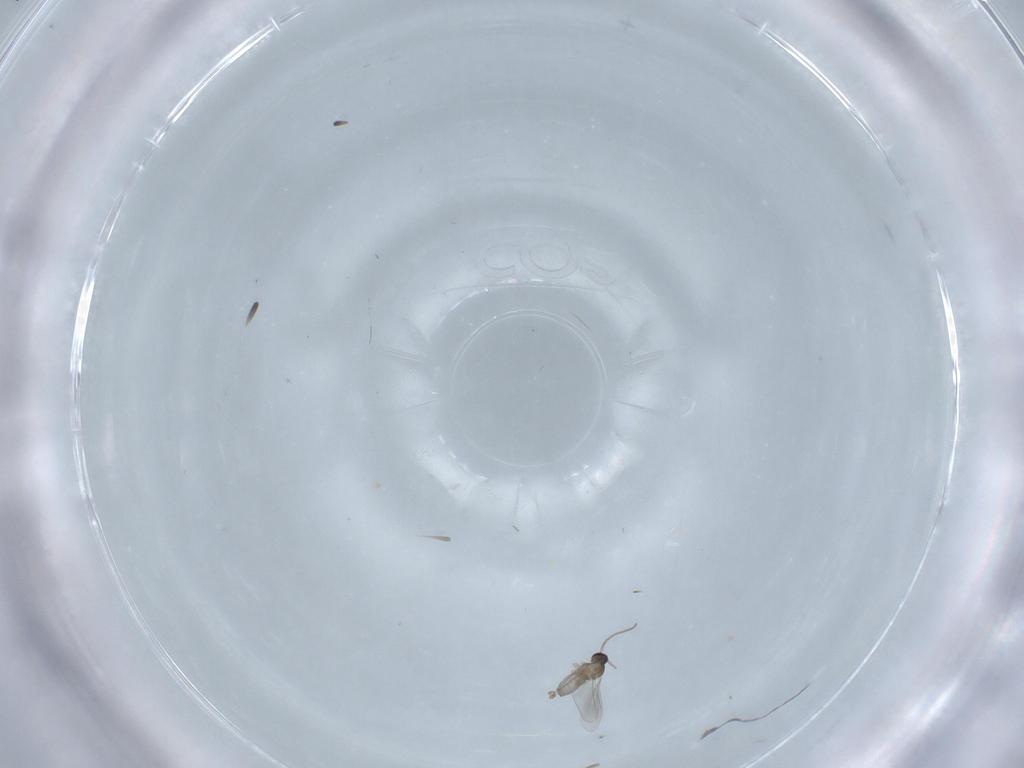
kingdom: Animalia
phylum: Arthropoda
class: Insecta
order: Diptera
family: Cecidomyiidae
